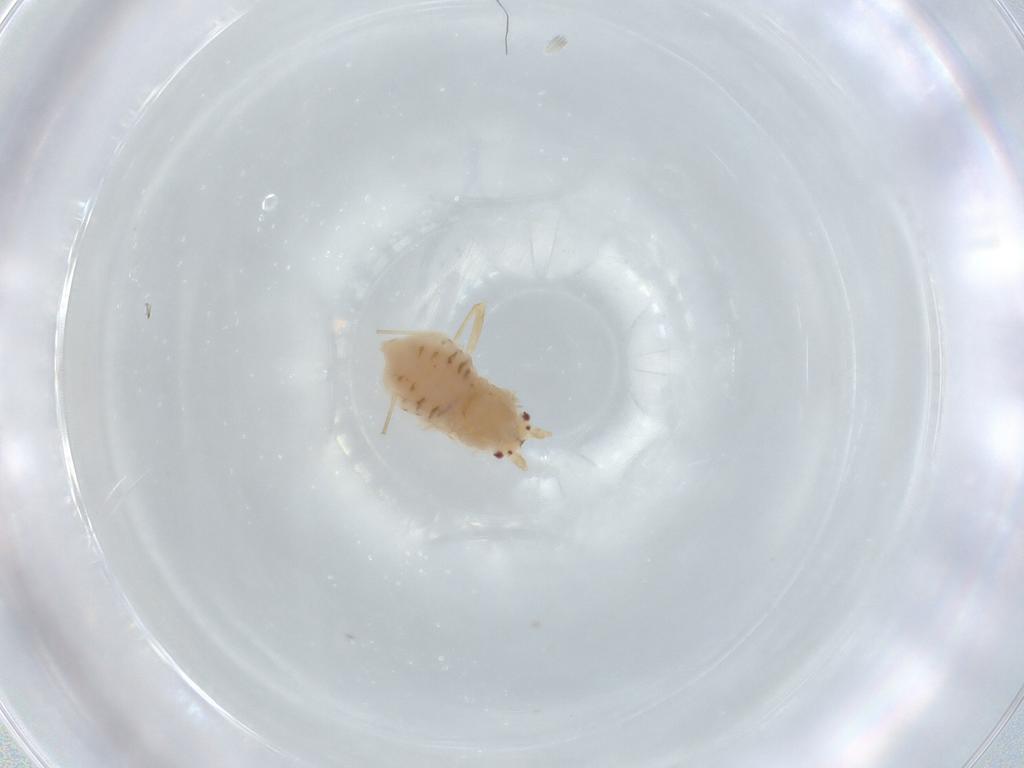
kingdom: Animalia
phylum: Arthropoda
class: Insecta
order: Hemiptera
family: Aphididae
